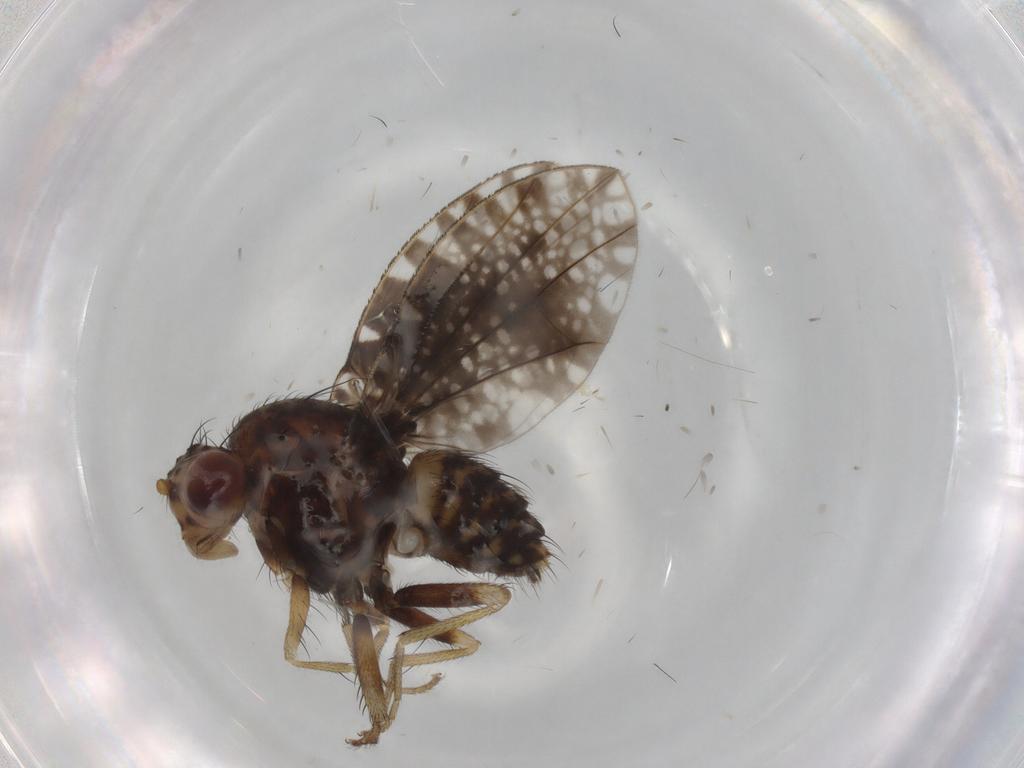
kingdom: Animalia
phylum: Arthropoda
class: Insecta
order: Diptera
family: Lauxaniidae
